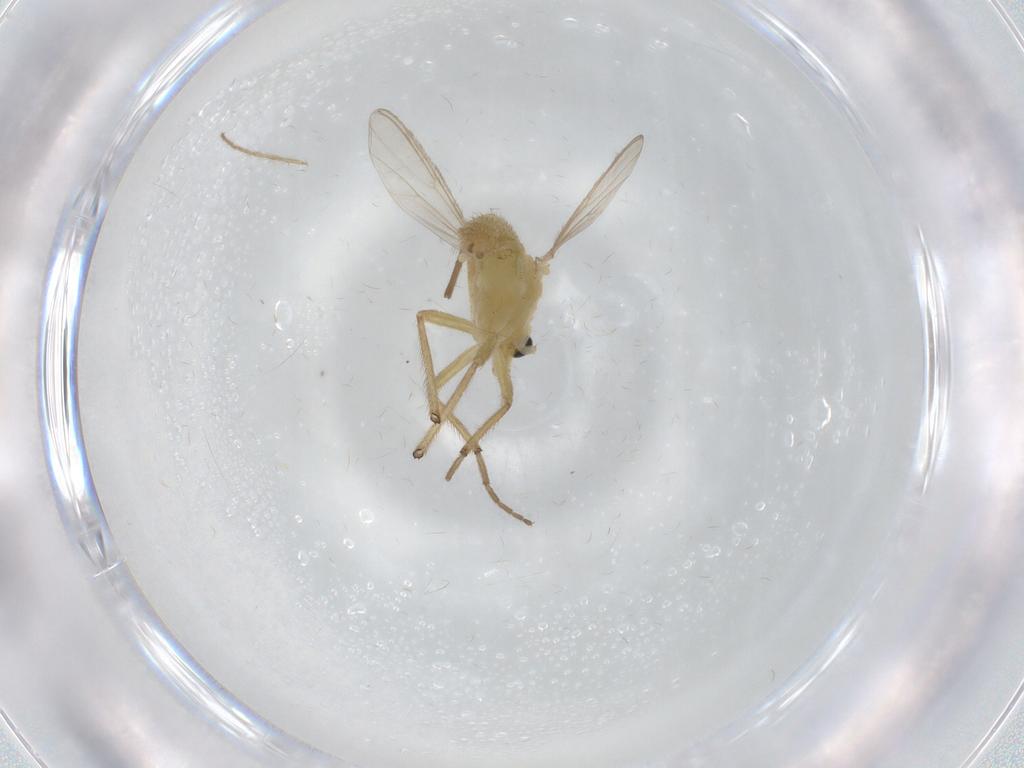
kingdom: Animalia
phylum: Arthropoda
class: Insecta
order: Diptera
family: Chironomidae
